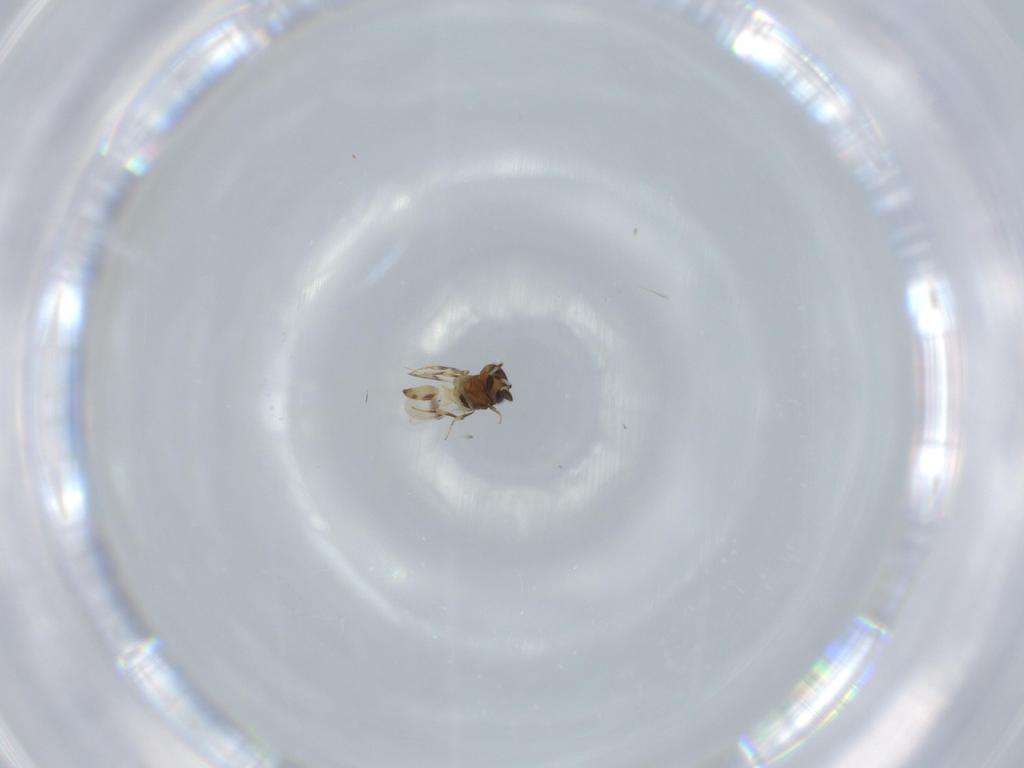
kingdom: Animalia
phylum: Arthropoda
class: Arachnida
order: Araneae
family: Pholcidae
